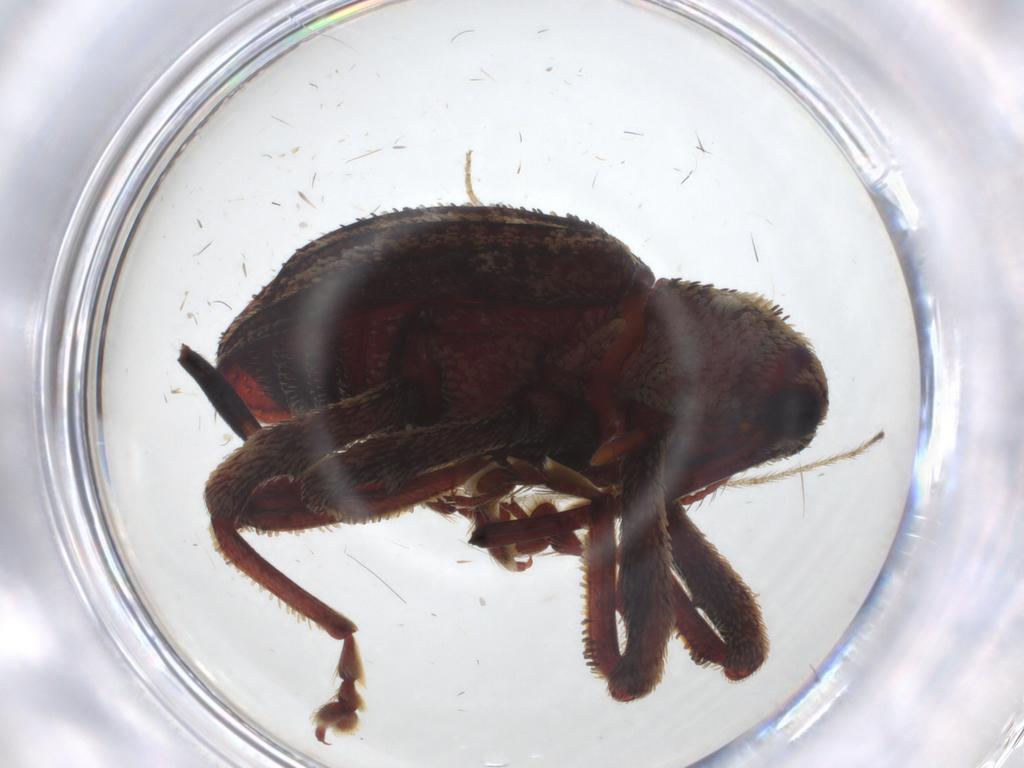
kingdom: Animalia
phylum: Arthropoda
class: Insecta
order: Coleoptera
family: Curculionidae
